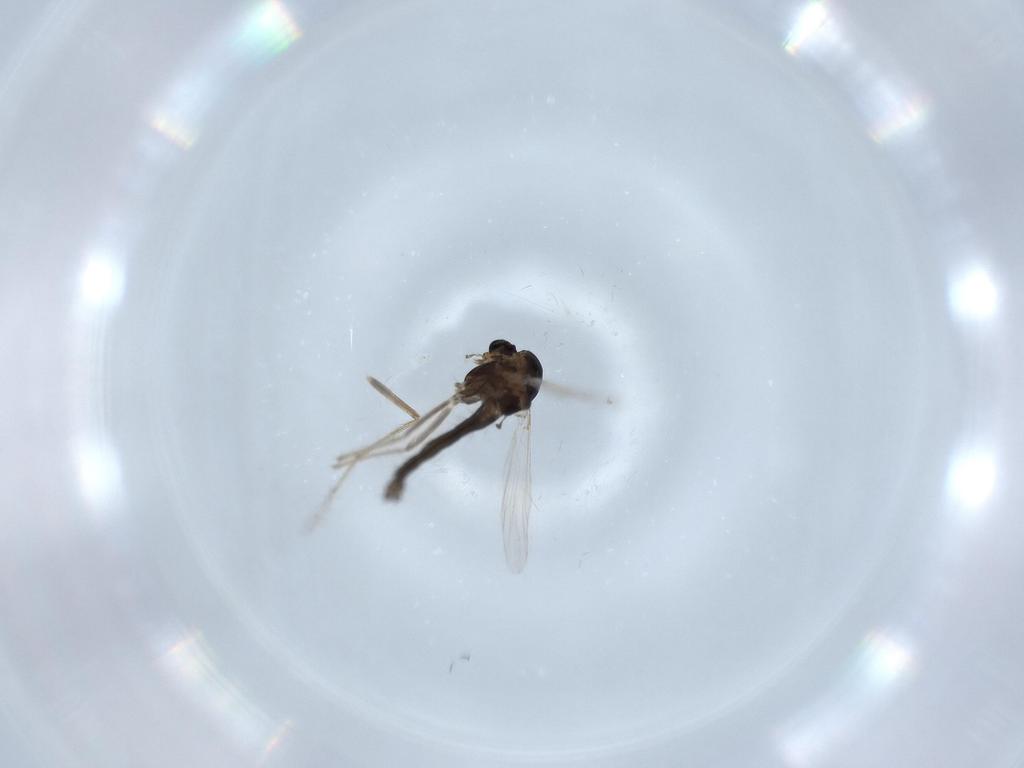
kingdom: Animalia
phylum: Arthropoda
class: Insecta
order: Diptera
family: Chironomidae
